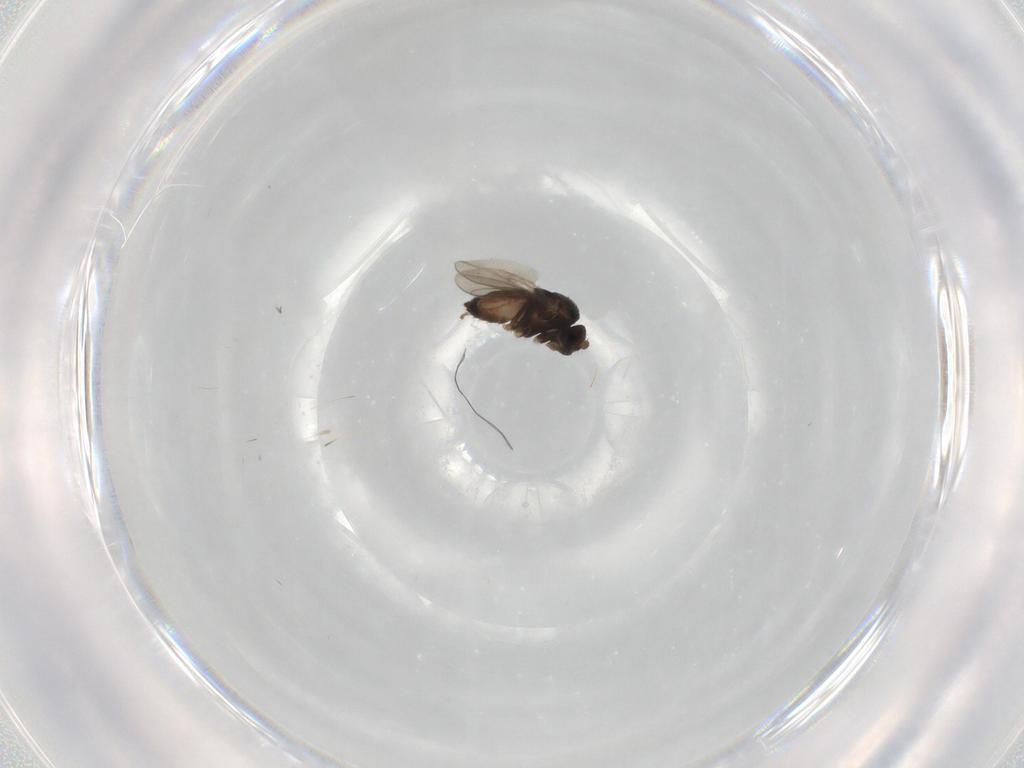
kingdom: Animalia
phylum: Arthropoda
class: Insecta
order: Diptera
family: Sphaeroceridae
